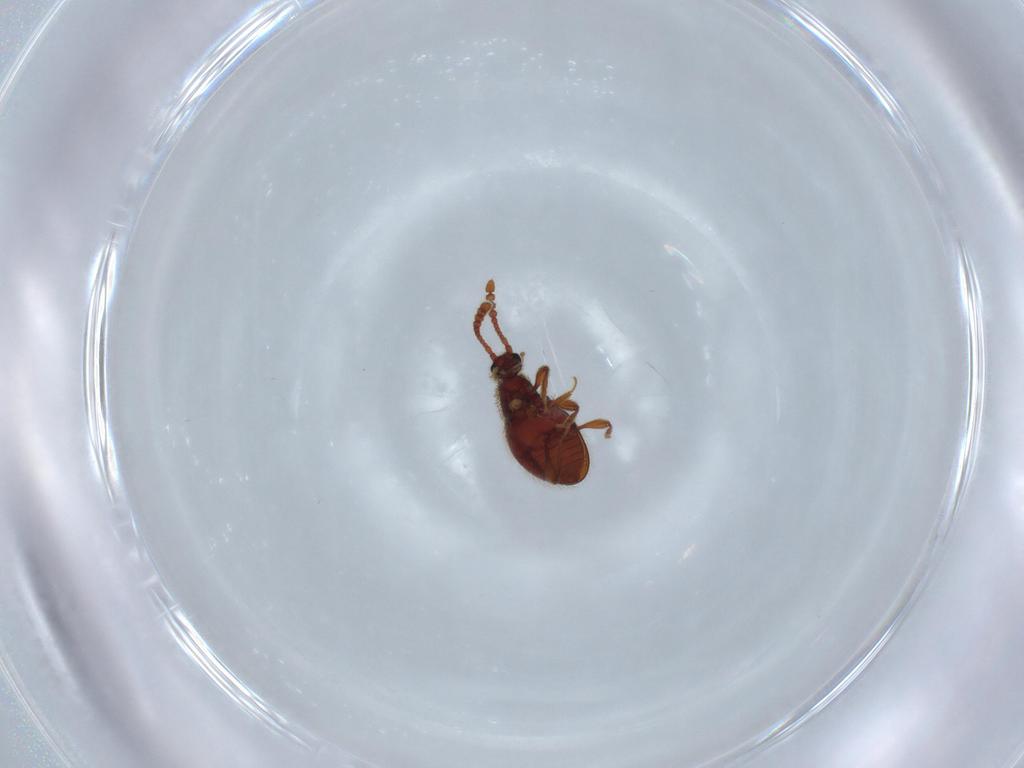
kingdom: Animalia
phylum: Arthropoda
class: Insecta
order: Coleoptera
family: Staphylinidae
